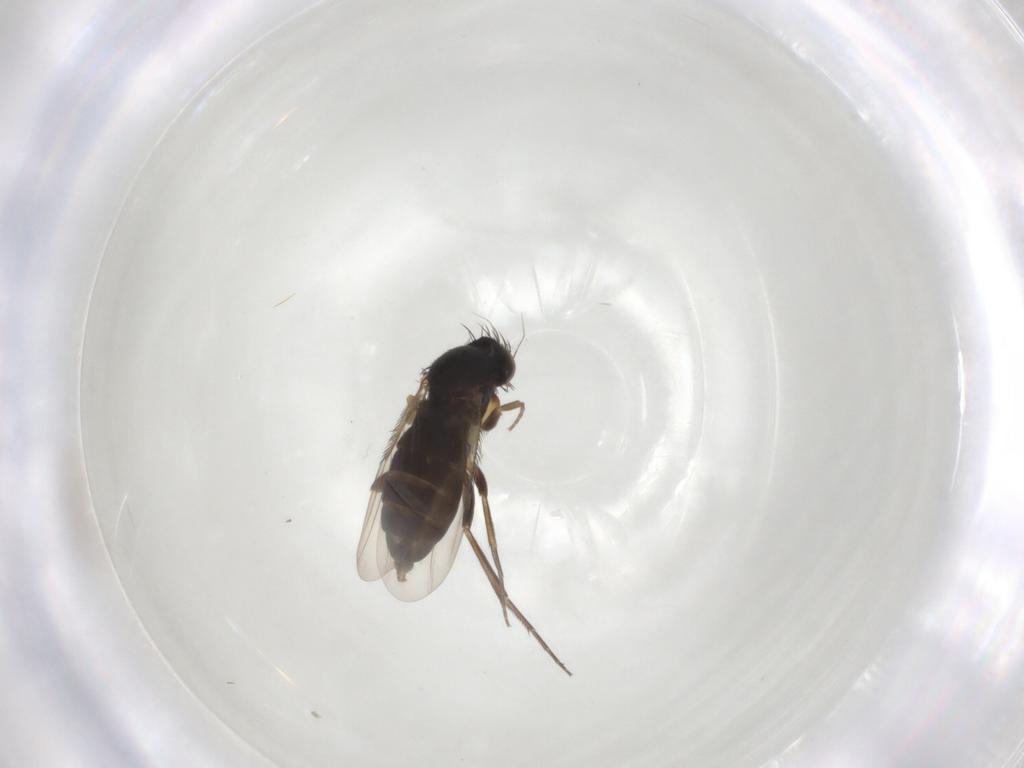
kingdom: Animalia
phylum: Arthropoda
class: Insecta
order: Diptera
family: Phoridae
